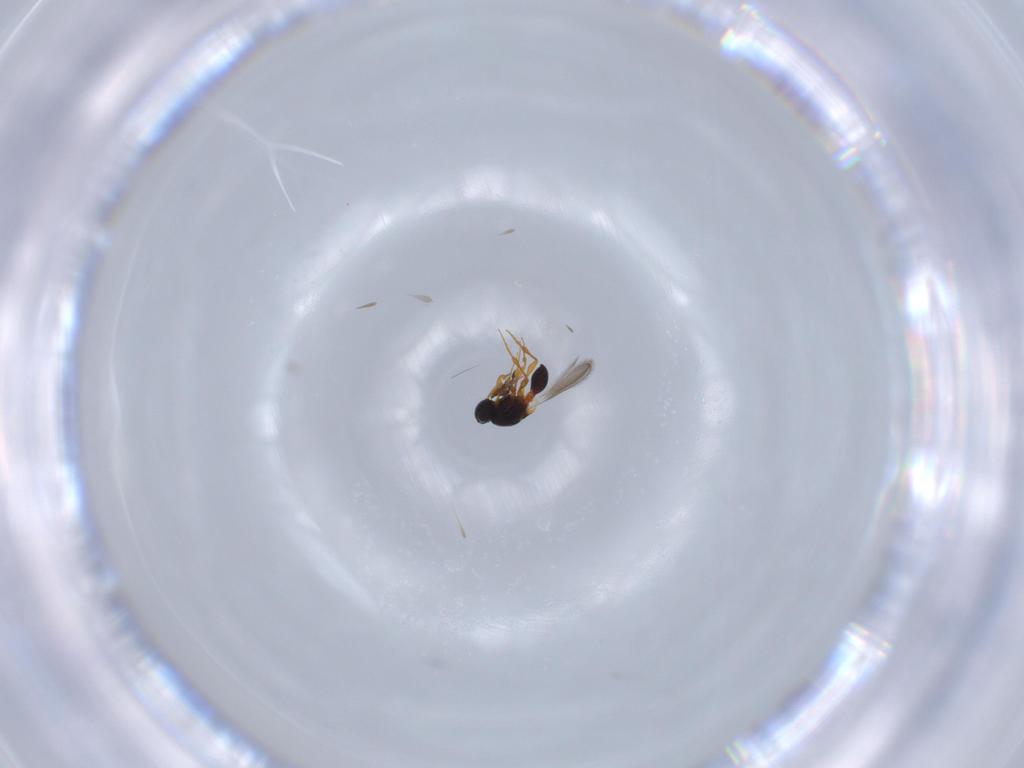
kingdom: Animalia
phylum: Arthropoda
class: Insecta
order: Hymenoptera
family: Platygastridae
